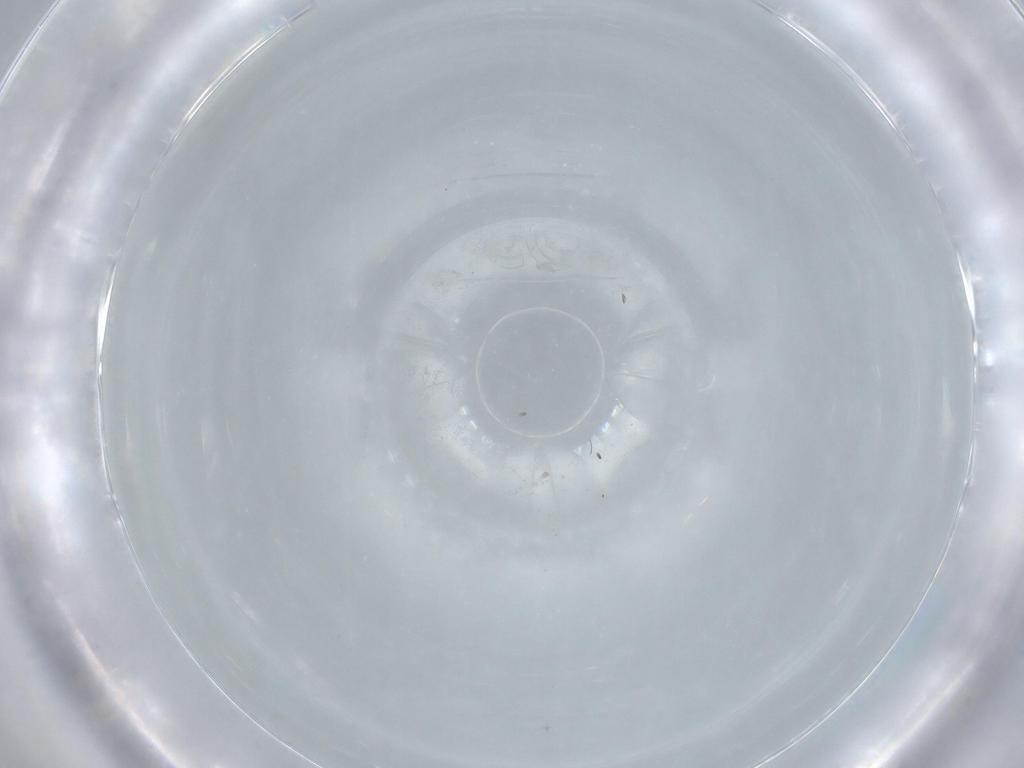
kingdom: Animalia
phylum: Arthropoda
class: Insecta
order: Diptera
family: Cecidomyiidae
